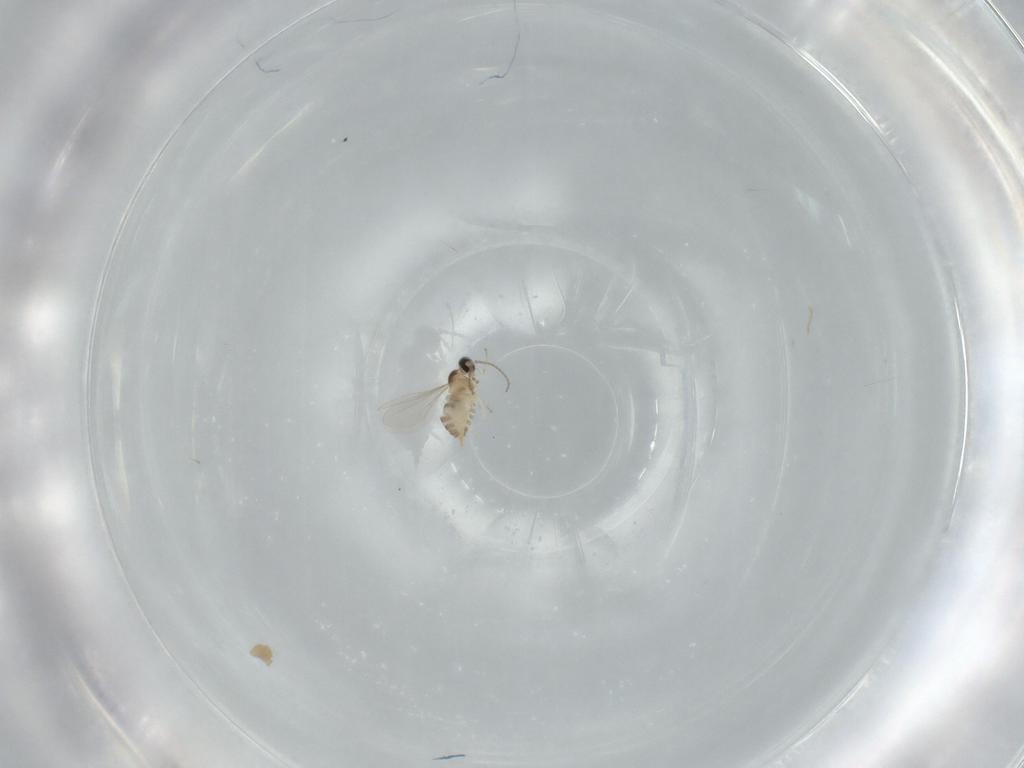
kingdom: Animalia
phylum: Arthropoda
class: Insecta
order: Diptera
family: Cecidomyiidae
